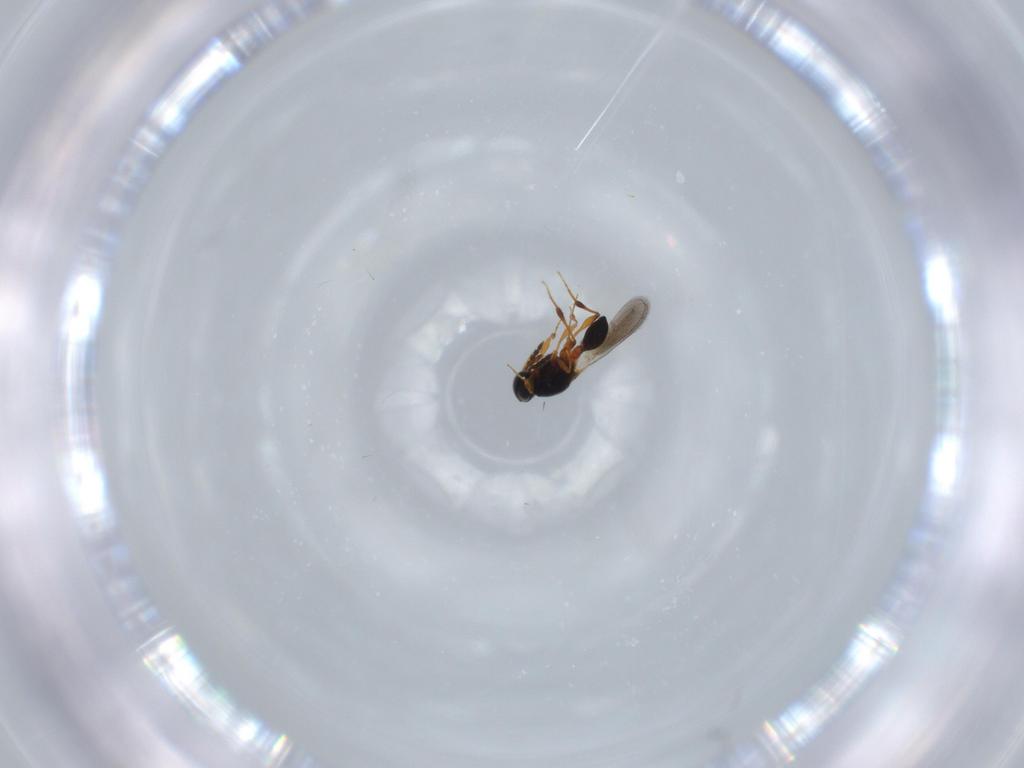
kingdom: Animalia
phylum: Arthropoda
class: Insecta
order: Hymenoptera
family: Platygastridae
